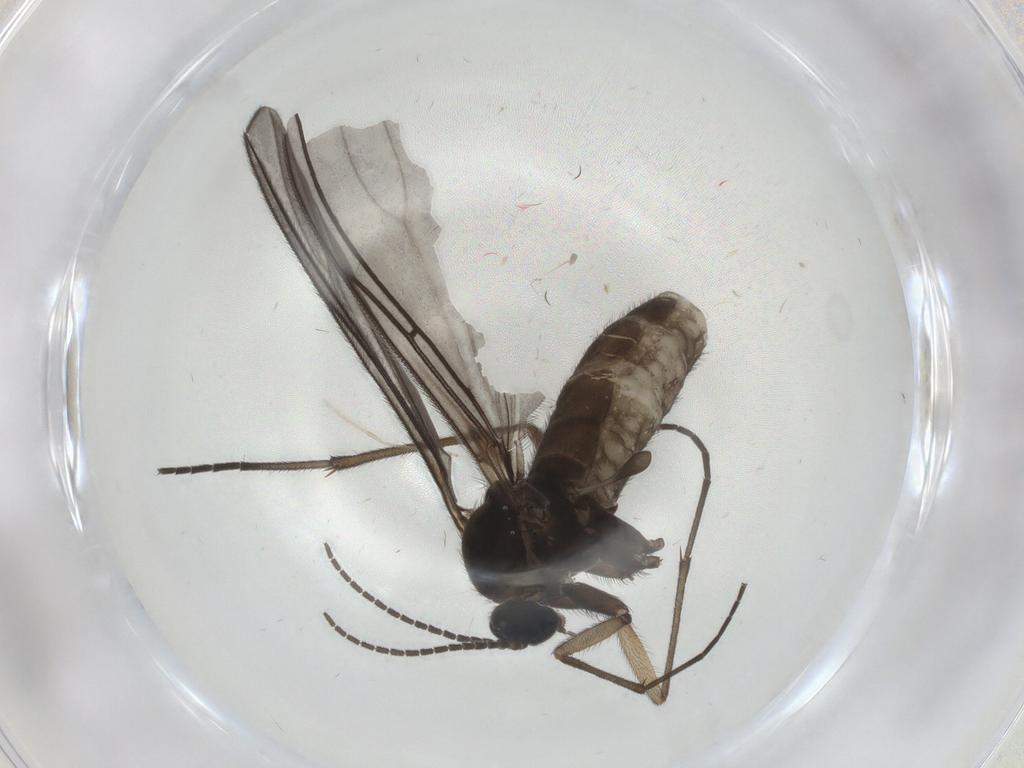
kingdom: Animalia
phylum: Arthropoda
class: Insecta
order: Diptera
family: Sciaridae
